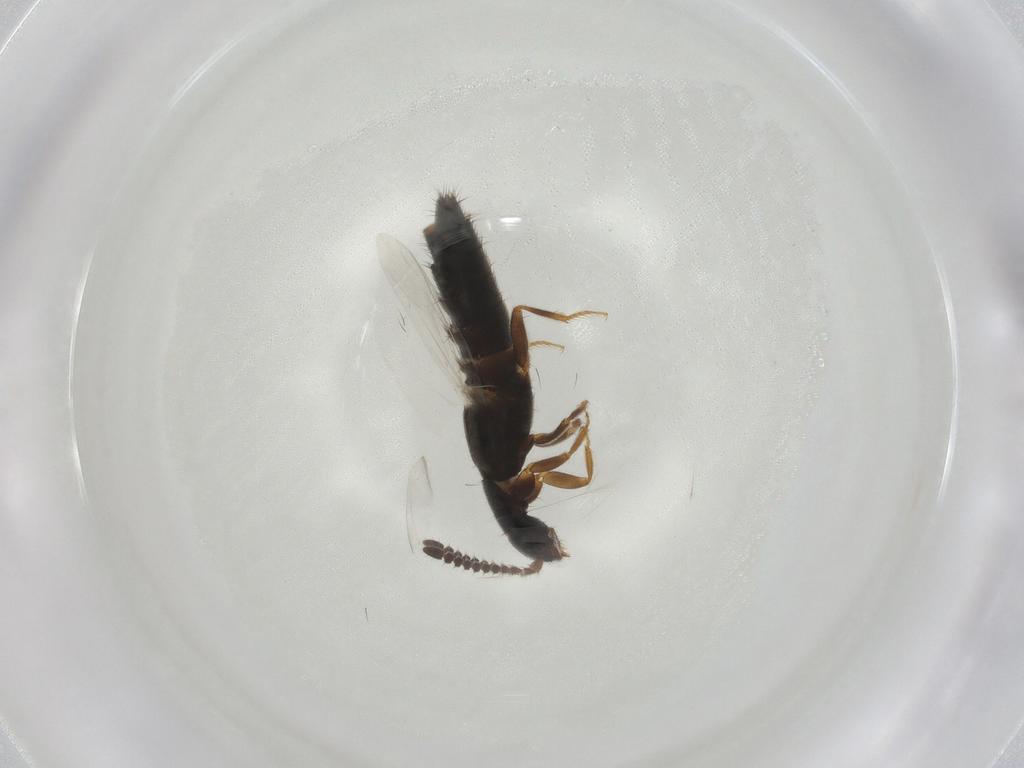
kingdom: Animalia
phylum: Arthropoda
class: Insecta
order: Coleoptera
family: Staphylinidae
